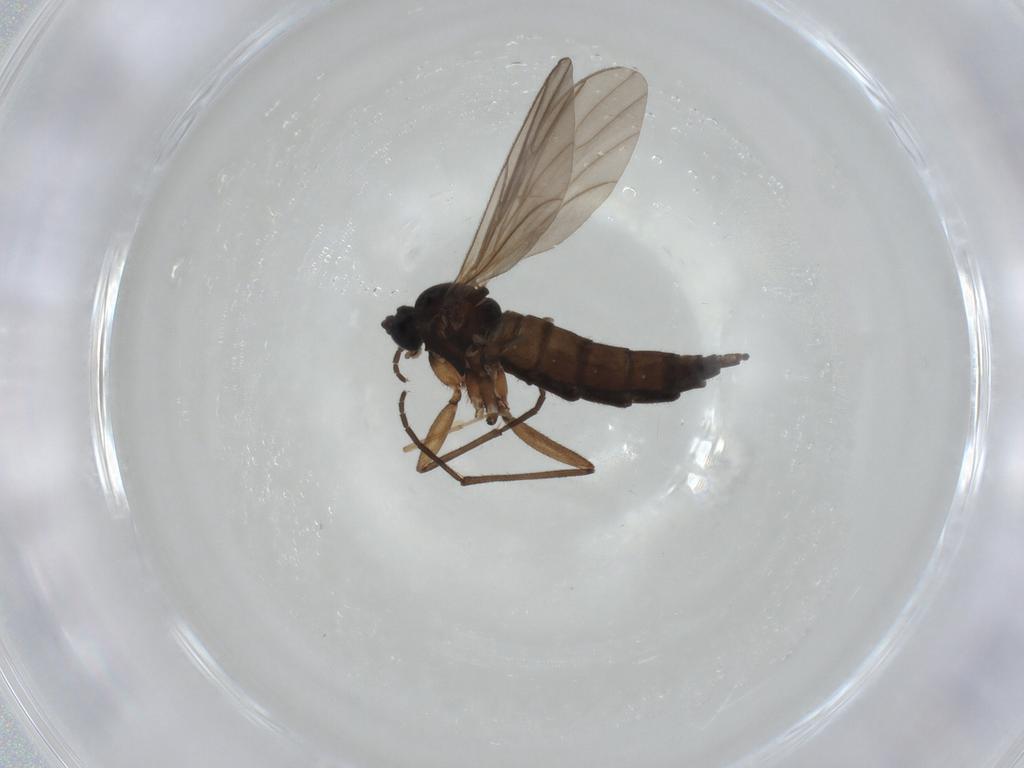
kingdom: Animalia
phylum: Arthropoda
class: Insecta
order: Diptera
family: Sciaridae
